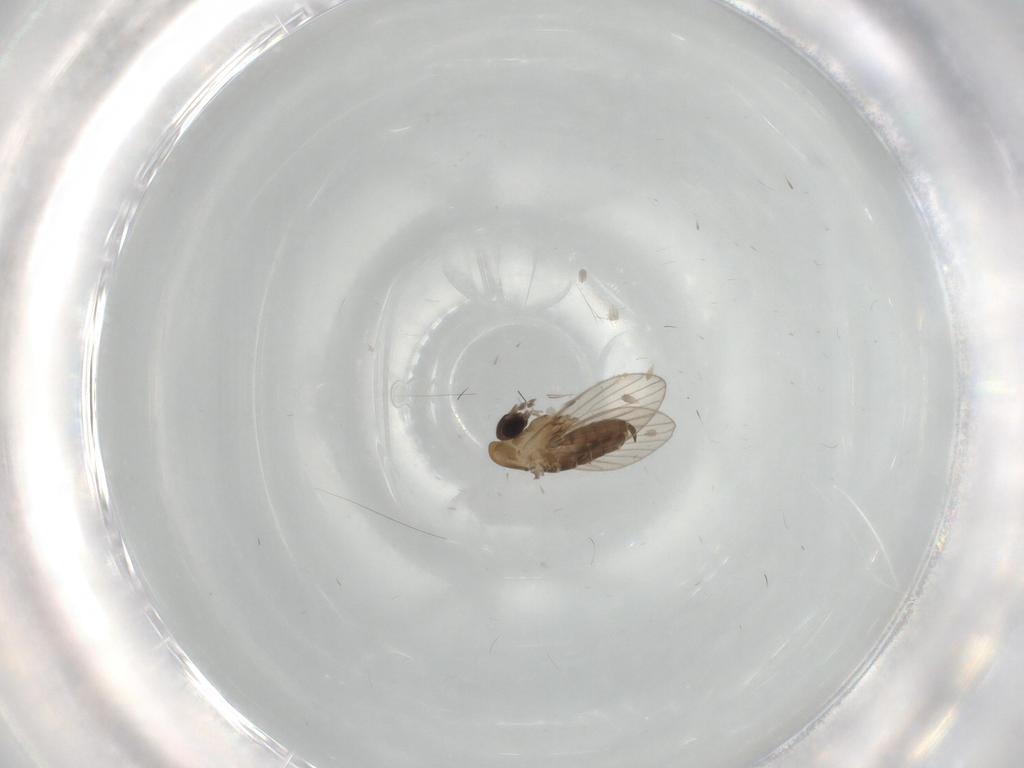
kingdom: Animalia
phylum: Arthropoda
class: Insecta
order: Diptera
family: Psychodidae
